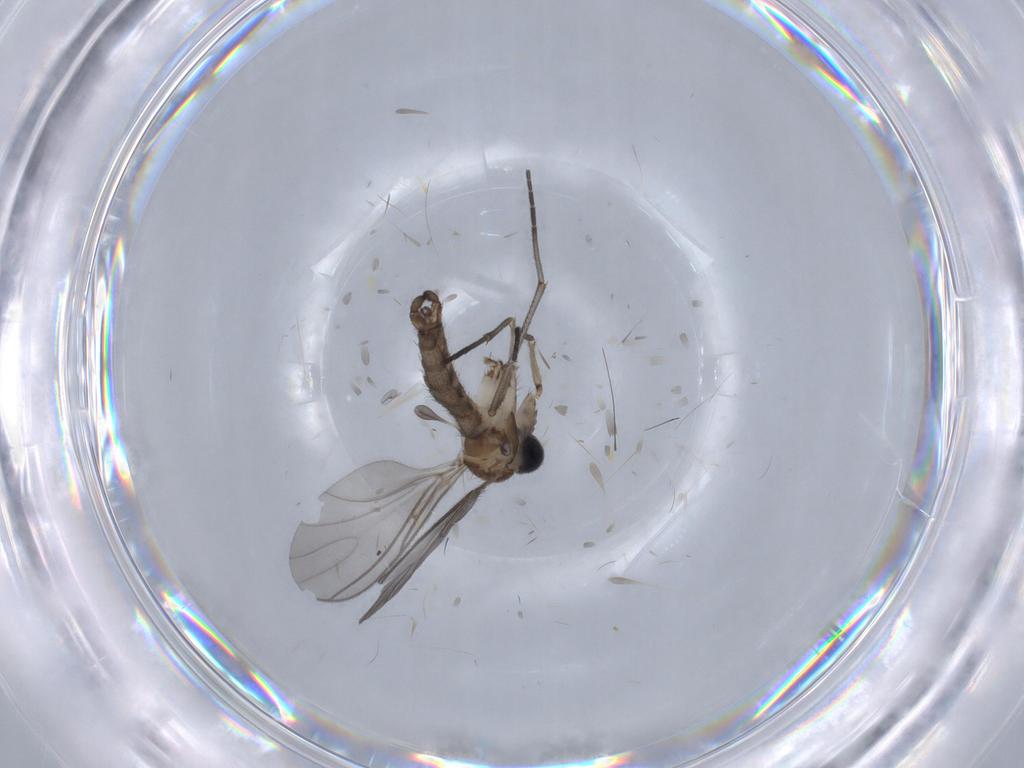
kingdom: Animalia
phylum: Arthropoda
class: Insecta
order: Diptera
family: Sciaridae
